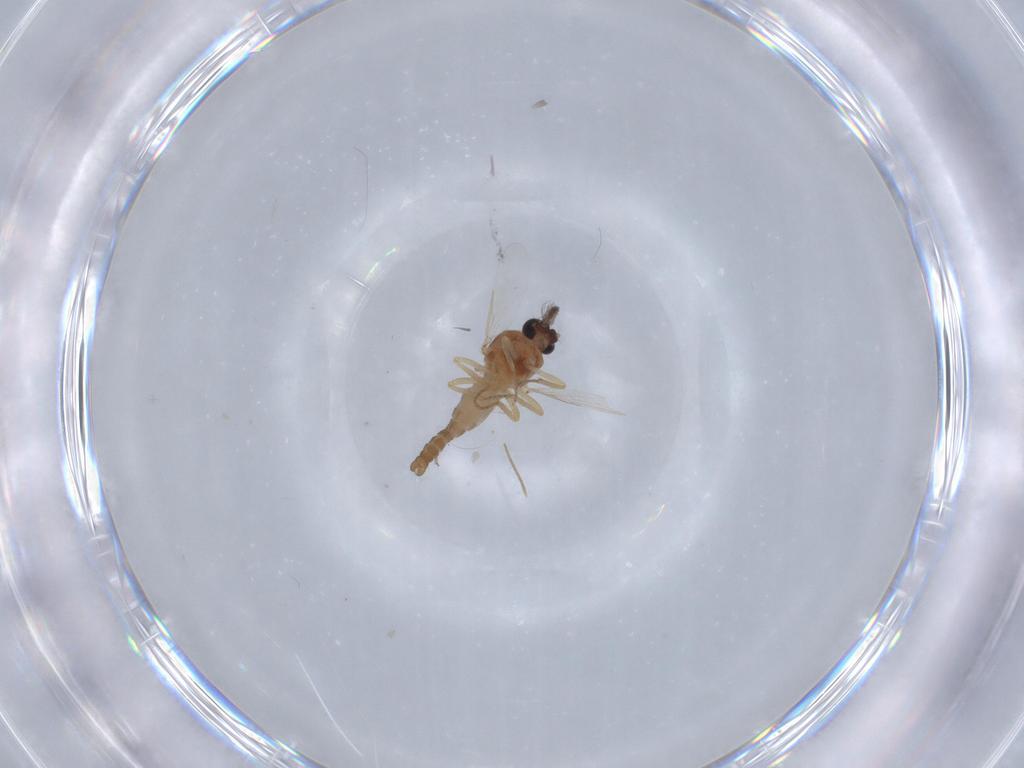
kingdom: Animalia
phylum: Arthropoda
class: Insecta
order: Diptera
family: Ceratopogonidae
